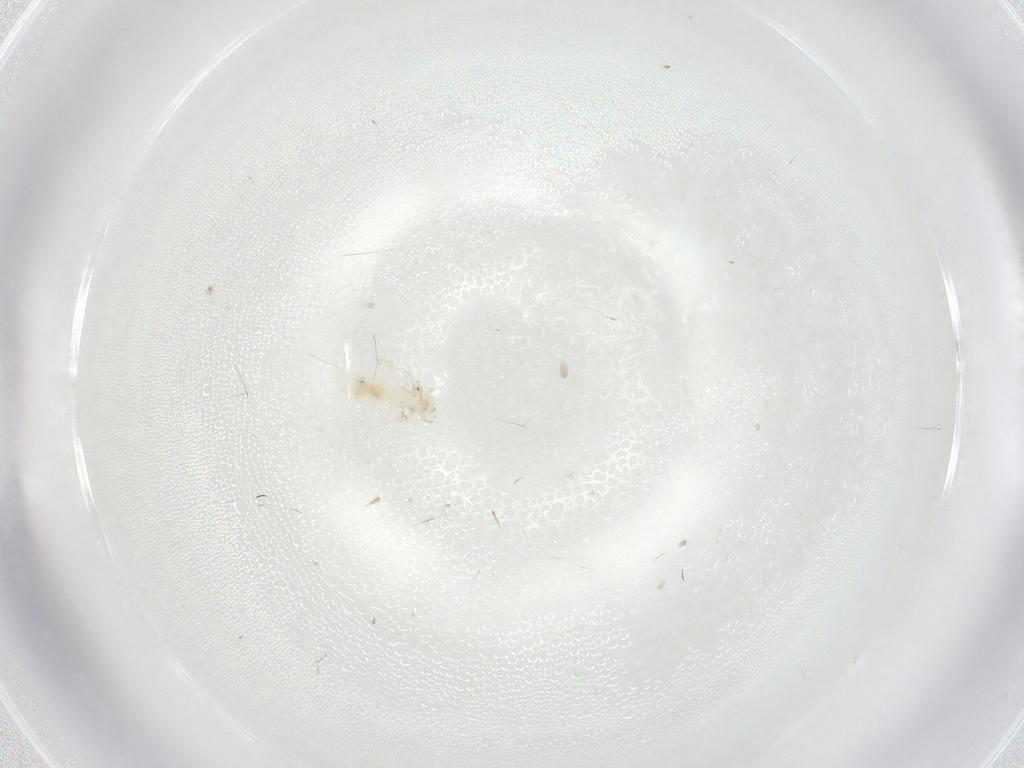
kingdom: Animalia
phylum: Arthropoda
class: Insecta
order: Psocodea
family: Stenopsocidae
